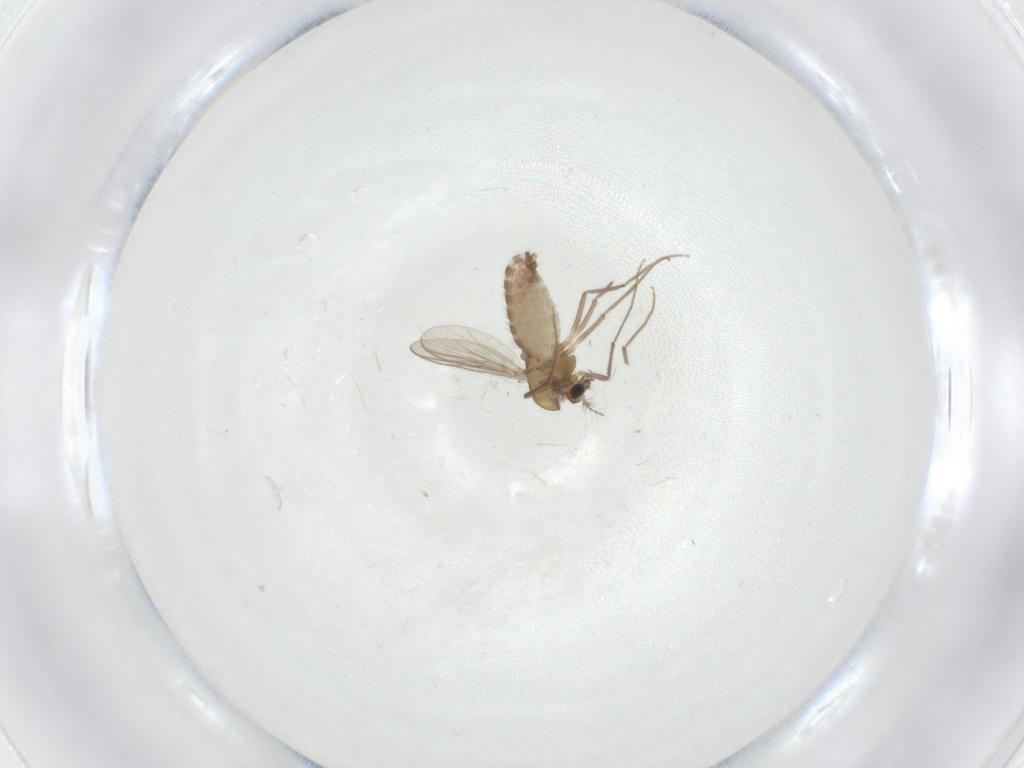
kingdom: Animalia
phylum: Arthropoda
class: Insecta
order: Diptera
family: Chironomidae
